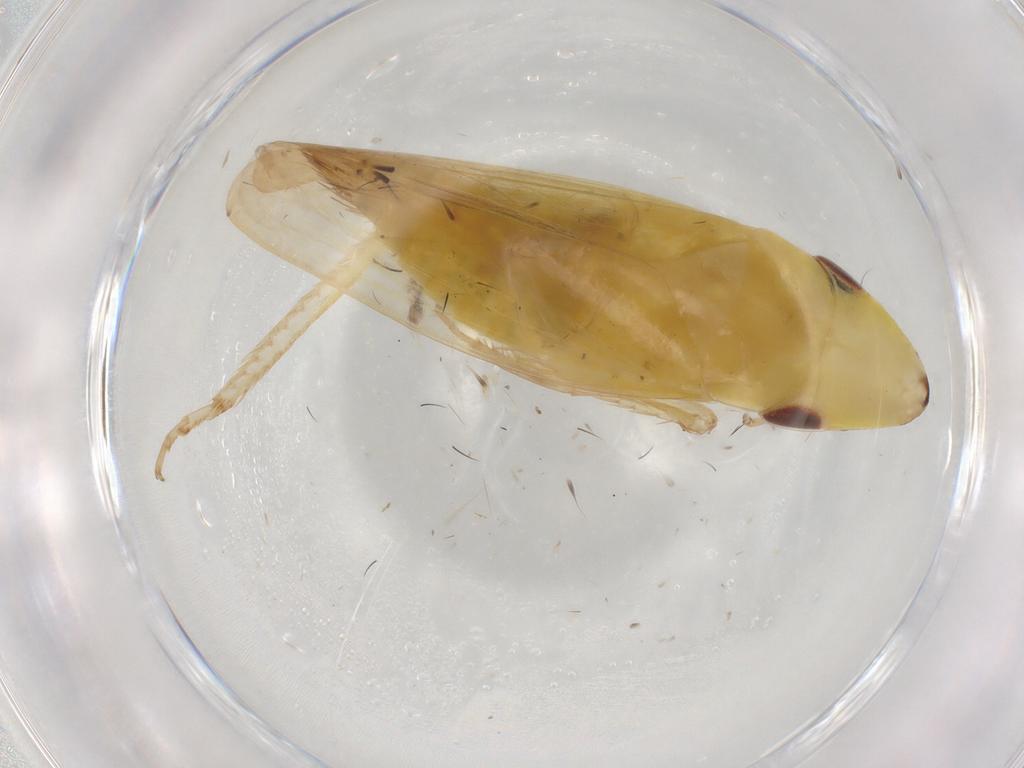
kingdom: Animalia
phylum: Arthropoda
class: Insecta
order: Hemiptera
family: Cicadellidae
